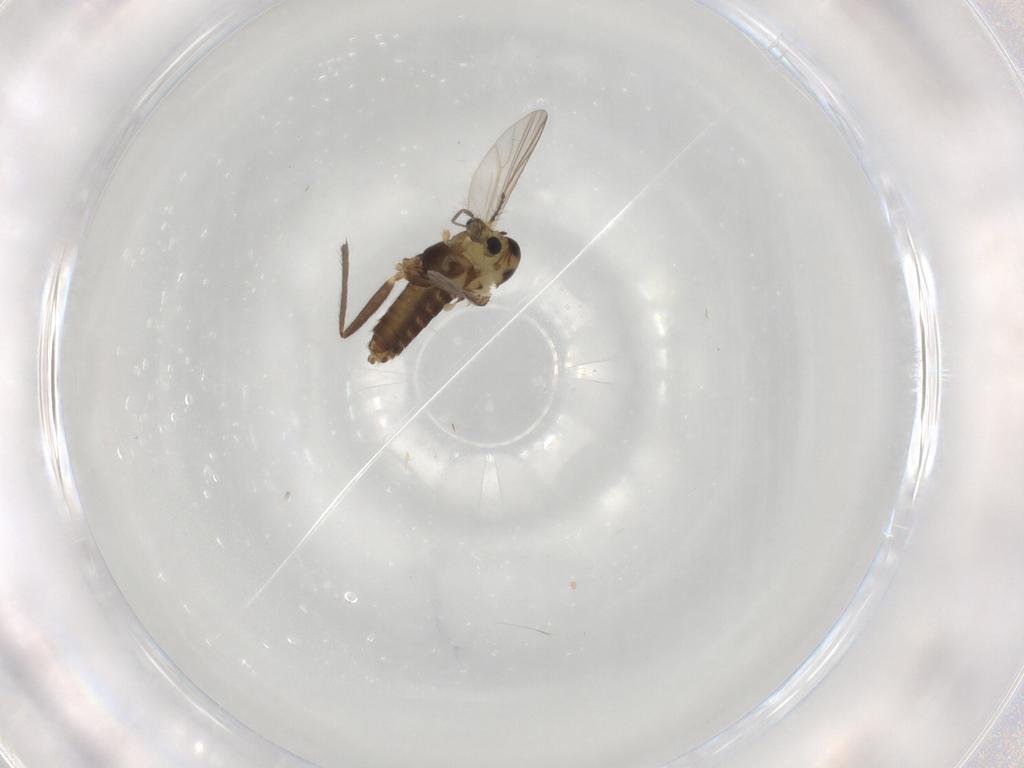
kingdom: Animalia
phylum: Arthropoda
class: Insecta
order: Diptera
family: Chironomidae
